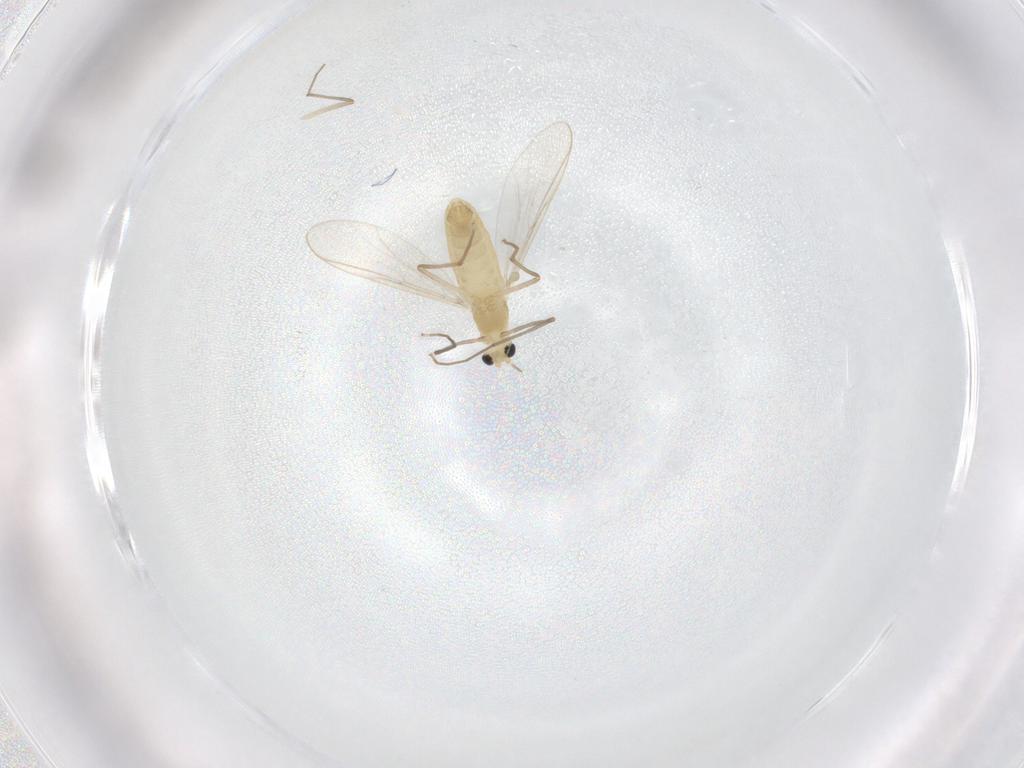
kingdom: Animalia
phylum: Arthropoda
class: Insecta
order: Diptera
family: Chironomidae
